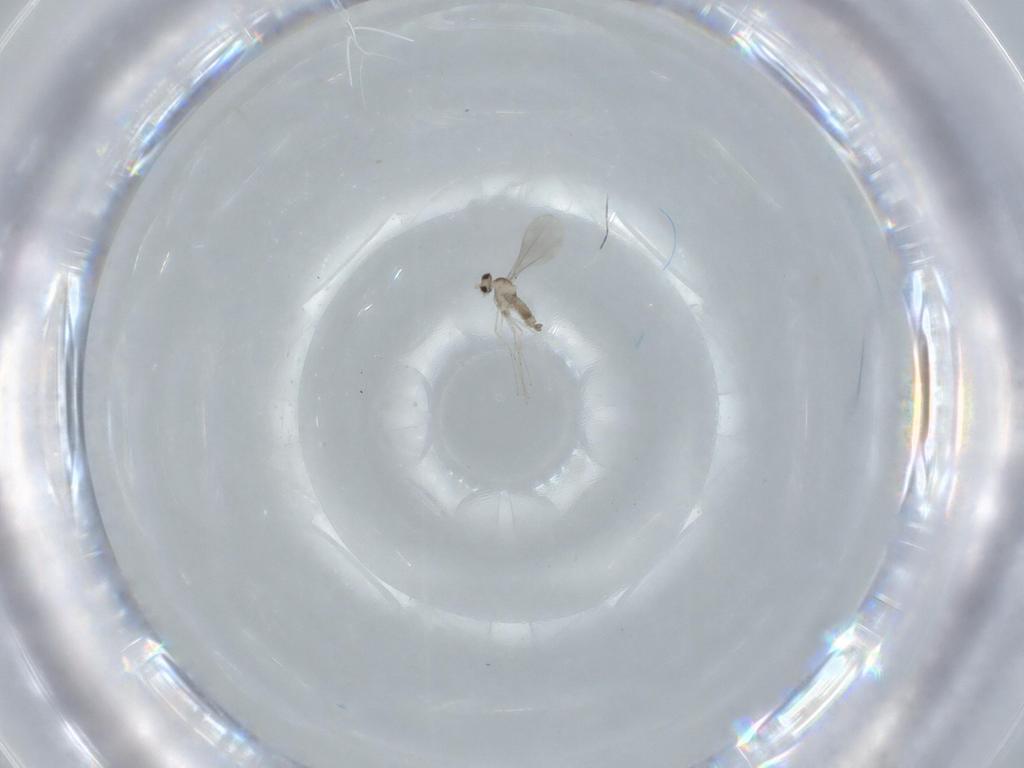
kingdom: Animalia
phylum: Arthropoda
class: Insecta
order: Diptera
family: Cecidomyiidae
